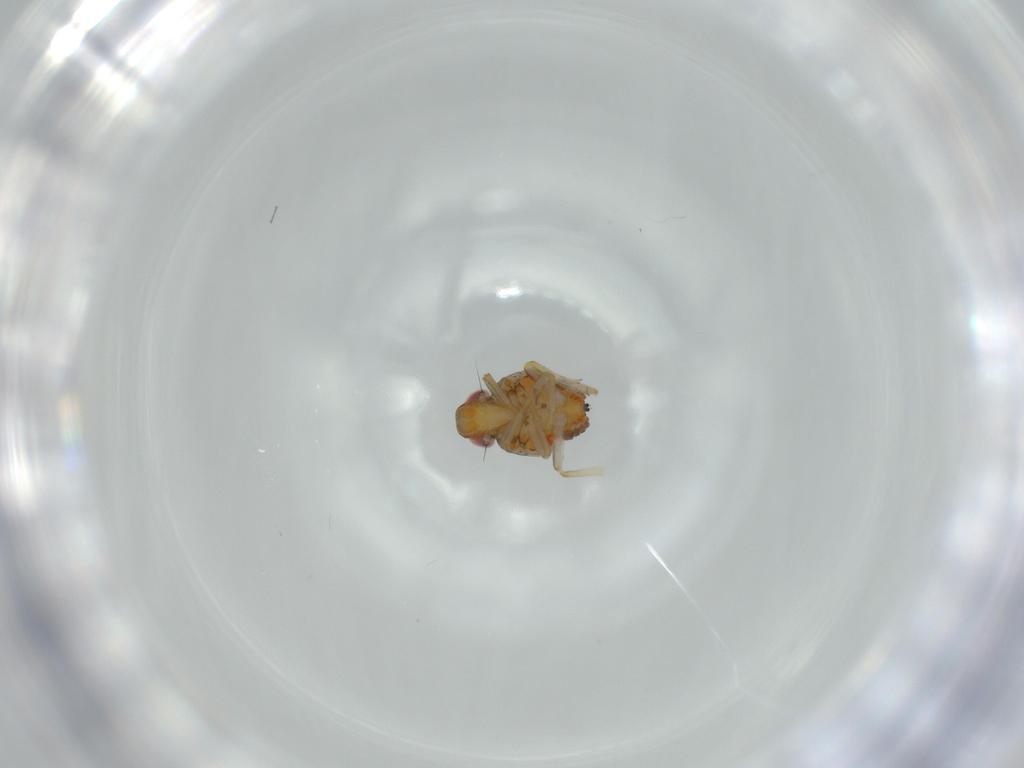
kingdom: Animalia
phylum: Arthropoda
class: Insecta
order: Hemiptera
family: Issidae
